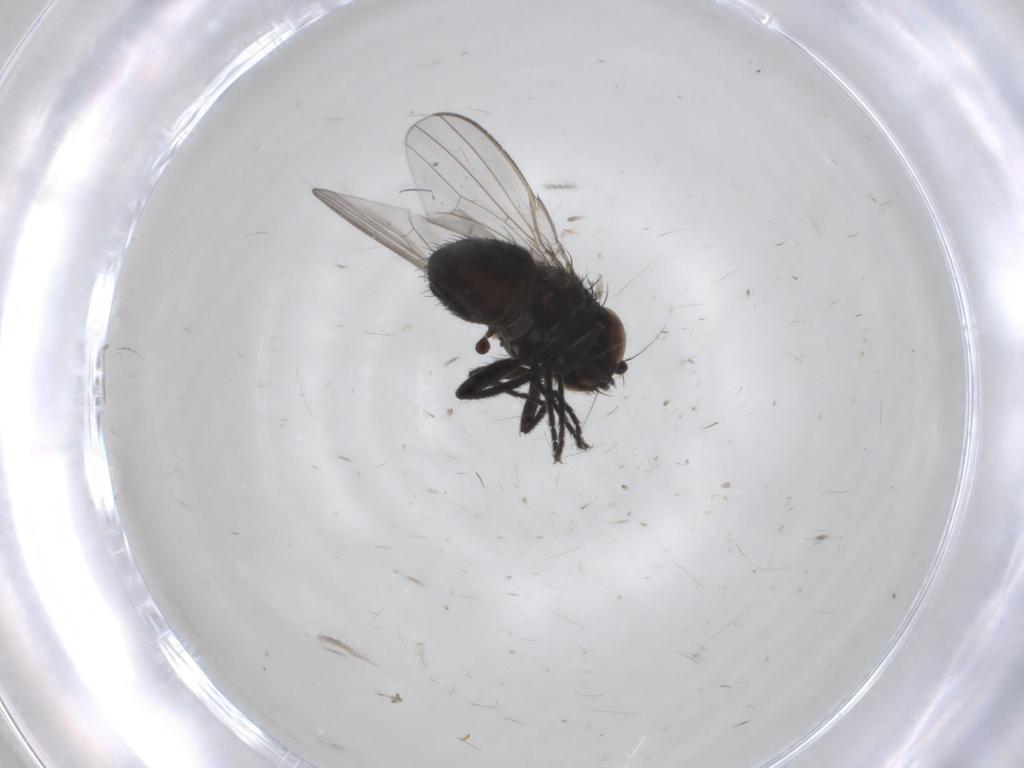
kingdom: Animalia
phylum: Arthropoda
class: Insecta
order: Diptera
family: Milichiidae
